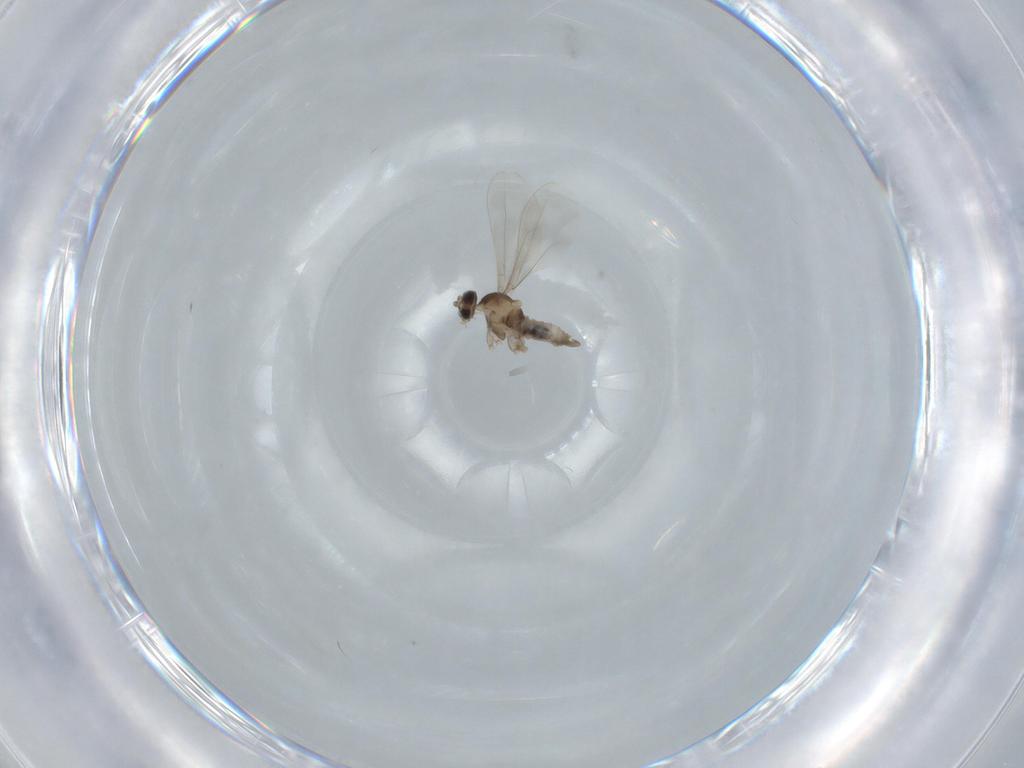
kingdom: Animalia
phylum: Arthropoda
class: Insecta
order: Diptera
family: Cecidomyiidae
